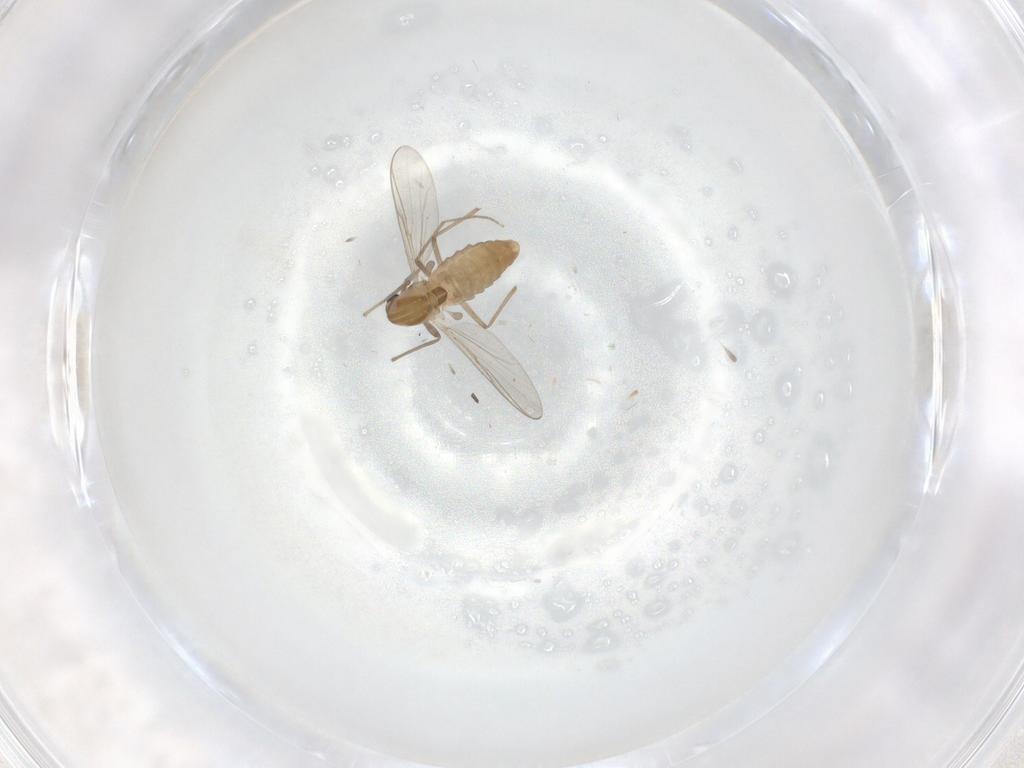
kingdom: Animalia
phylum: Arthropoda
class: Insecta
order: Diptera
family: Chironomidae
